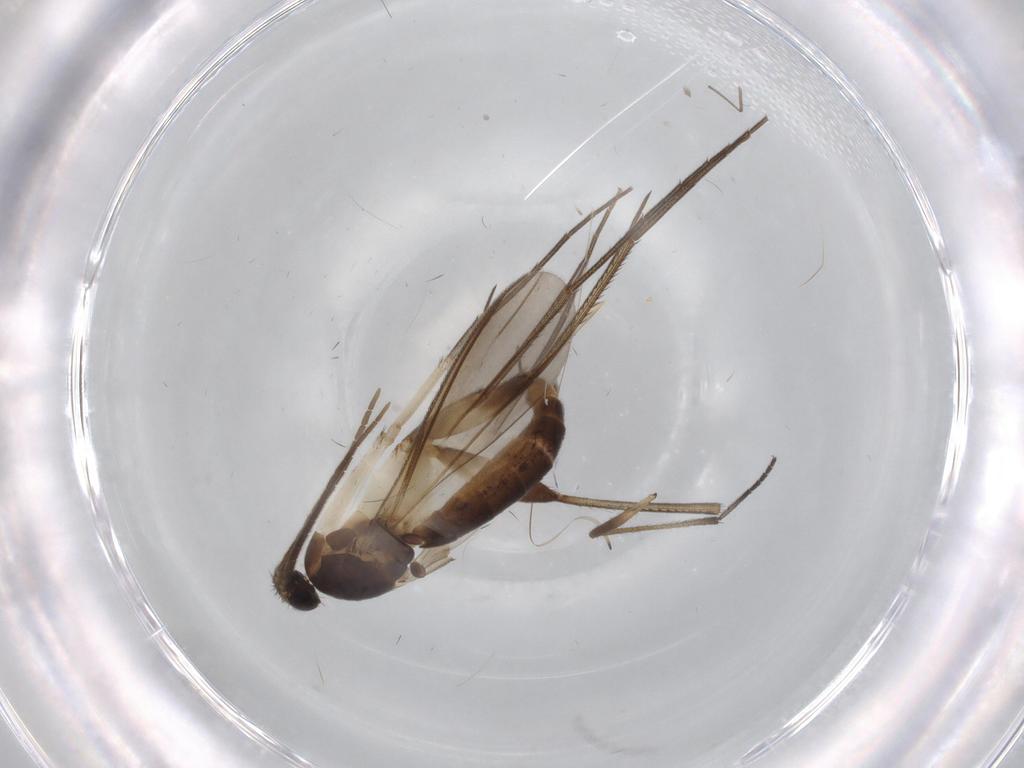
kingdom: Animalia
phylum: Arthropoda
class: Insecta
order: Diptera
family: Mycetophilidae
